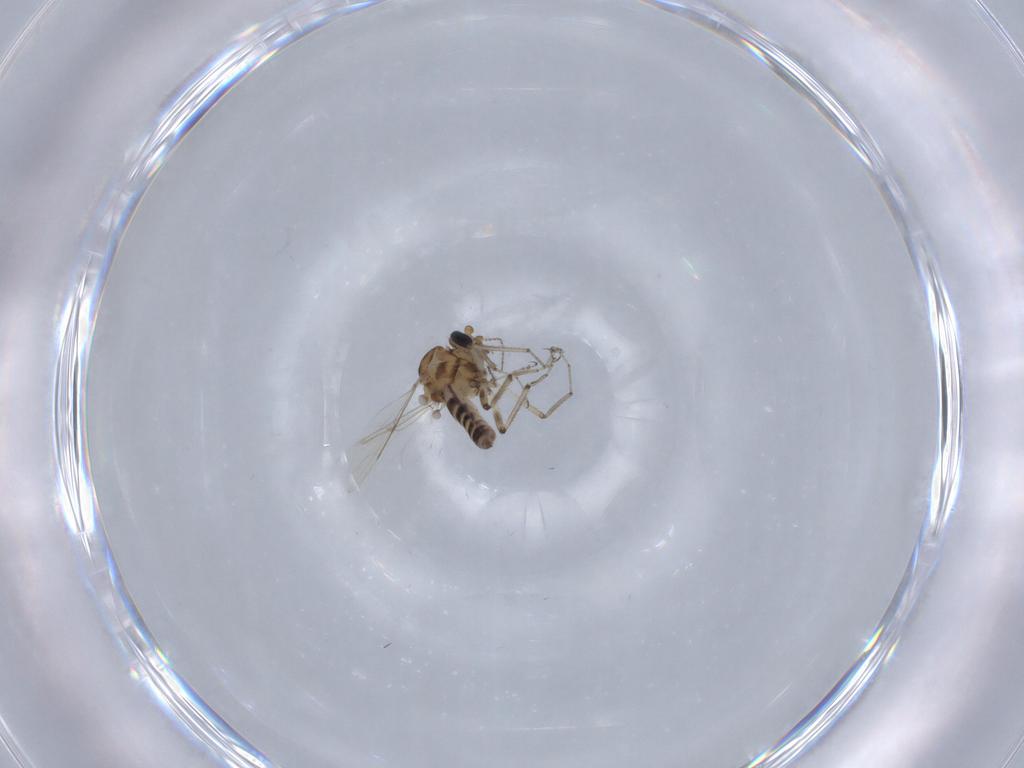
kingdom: Animalia
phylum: Arthropoda
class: Insecta
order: Diptera
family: Ceratopogonidae
